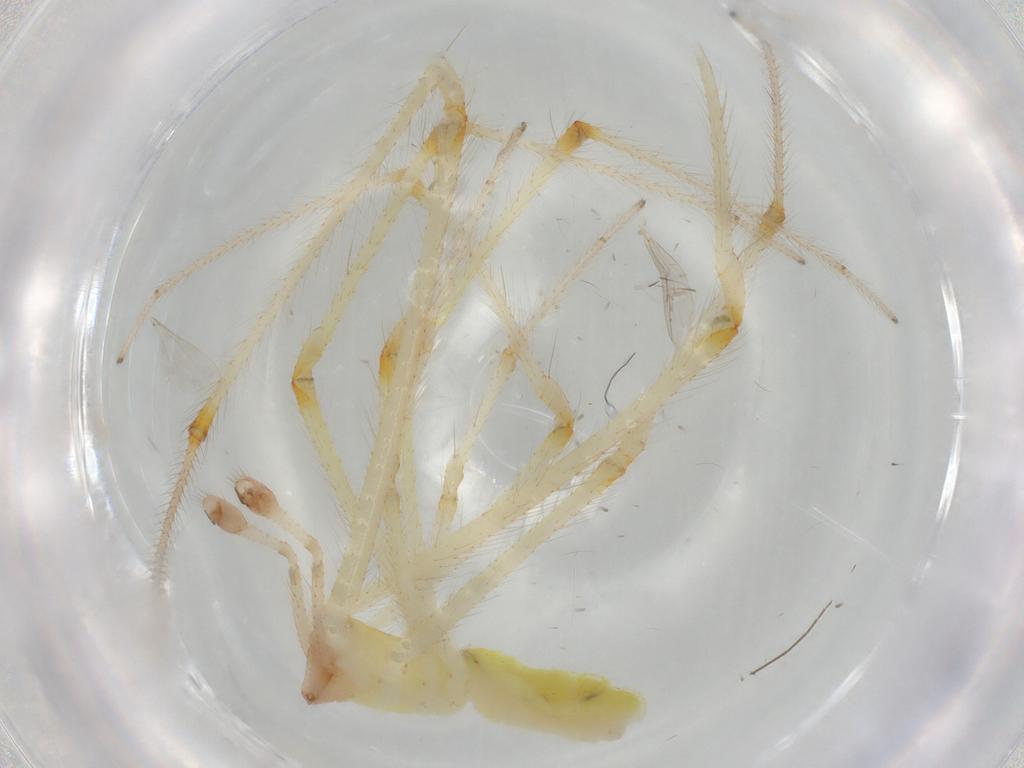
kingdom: Animalia
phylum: Arthropoda
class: Arachnida
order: Araneae
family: Theridiidae
